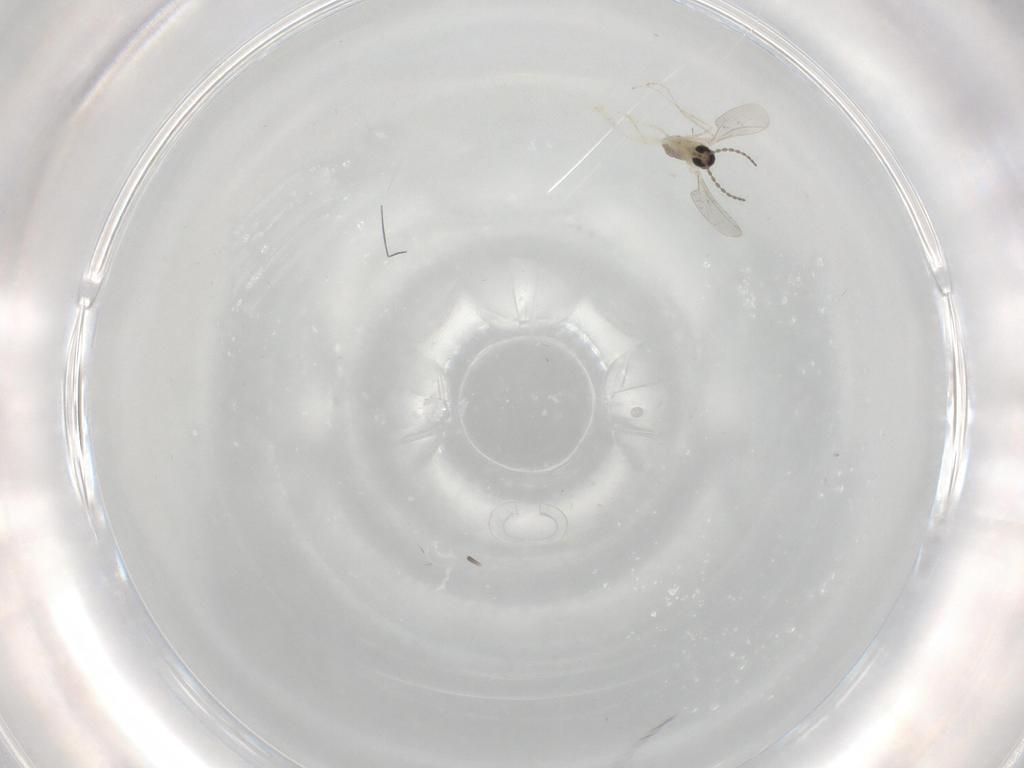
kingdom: Animalia
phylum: Arthropoda
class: Insecta
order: Diptera
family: Cecidomyiidae
